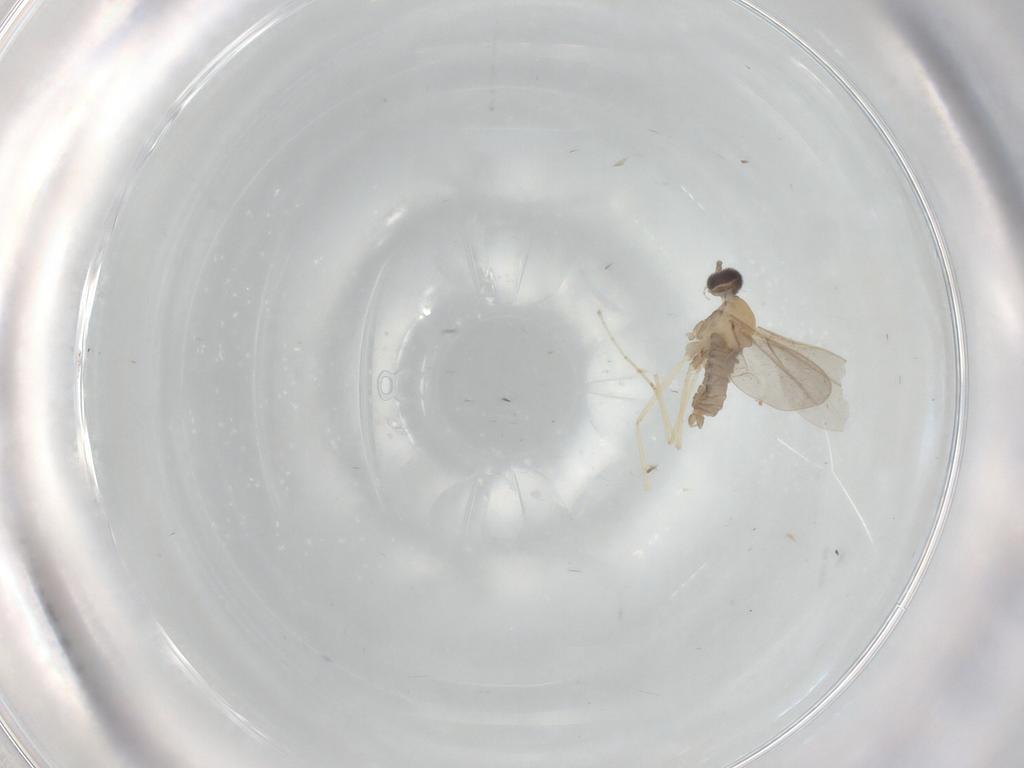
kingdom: Animalia
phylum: Arthropoda
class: Insecta
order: Diptera
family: Cecidomyiidae
